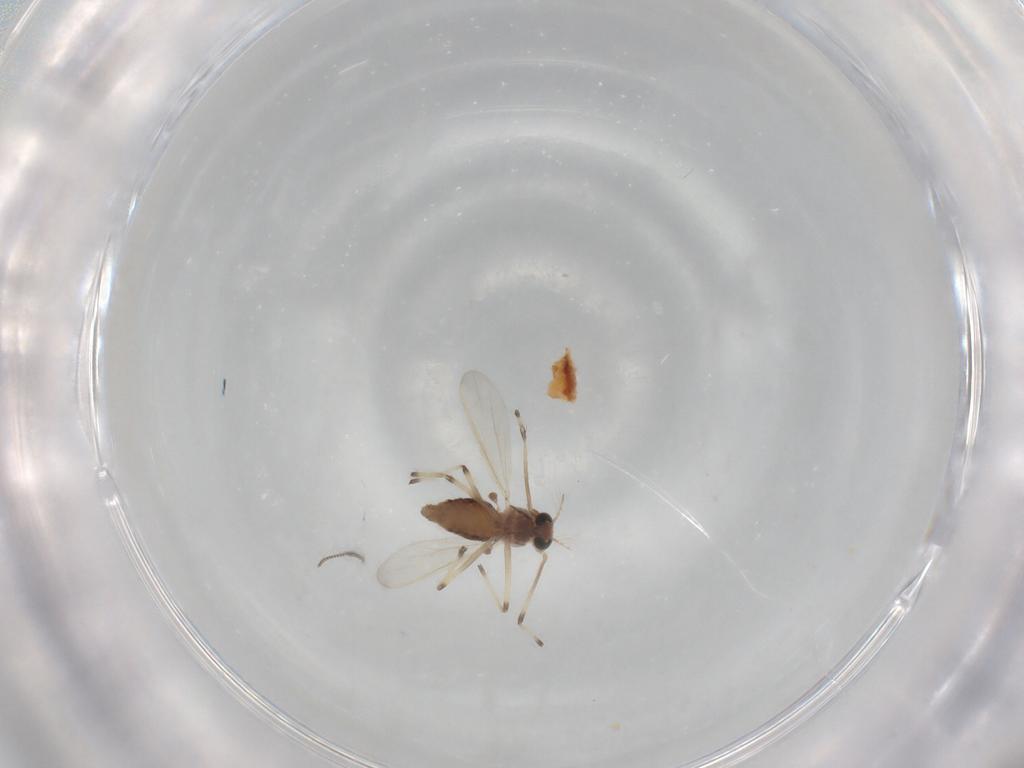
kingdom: Animalia
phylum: Arthropoda
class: Insecta
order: Diptera
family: Chironomidae
